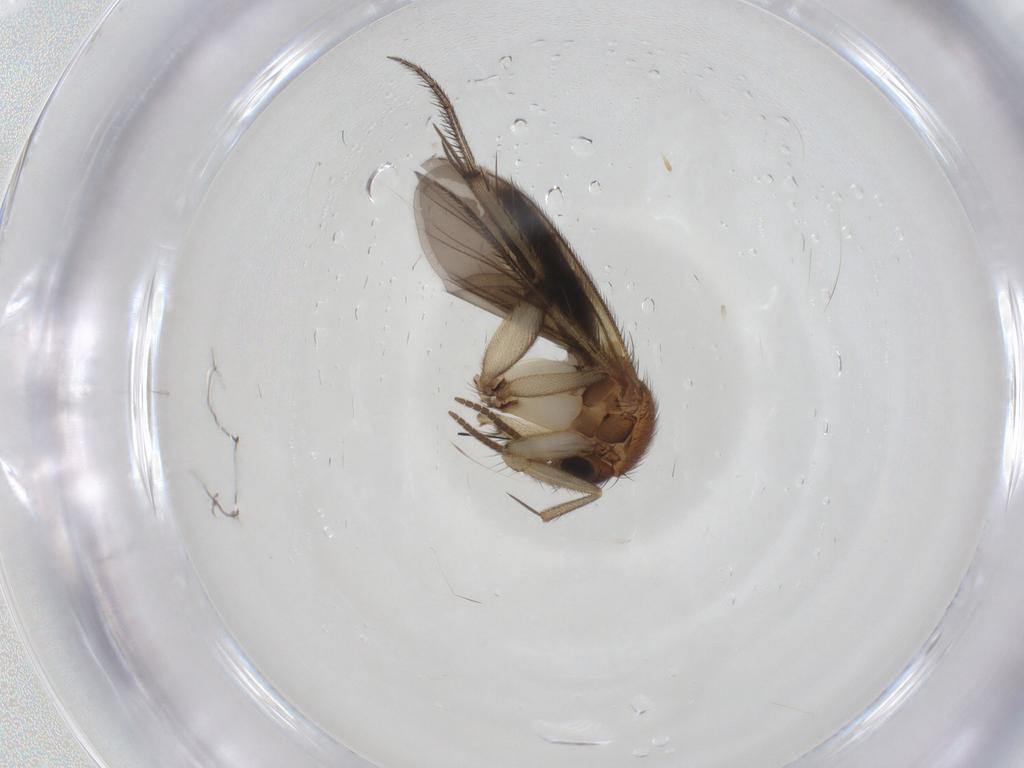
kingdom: Animalia
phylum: Arthropoda
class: Insecta
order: Diptera
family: Mycetophilidae
